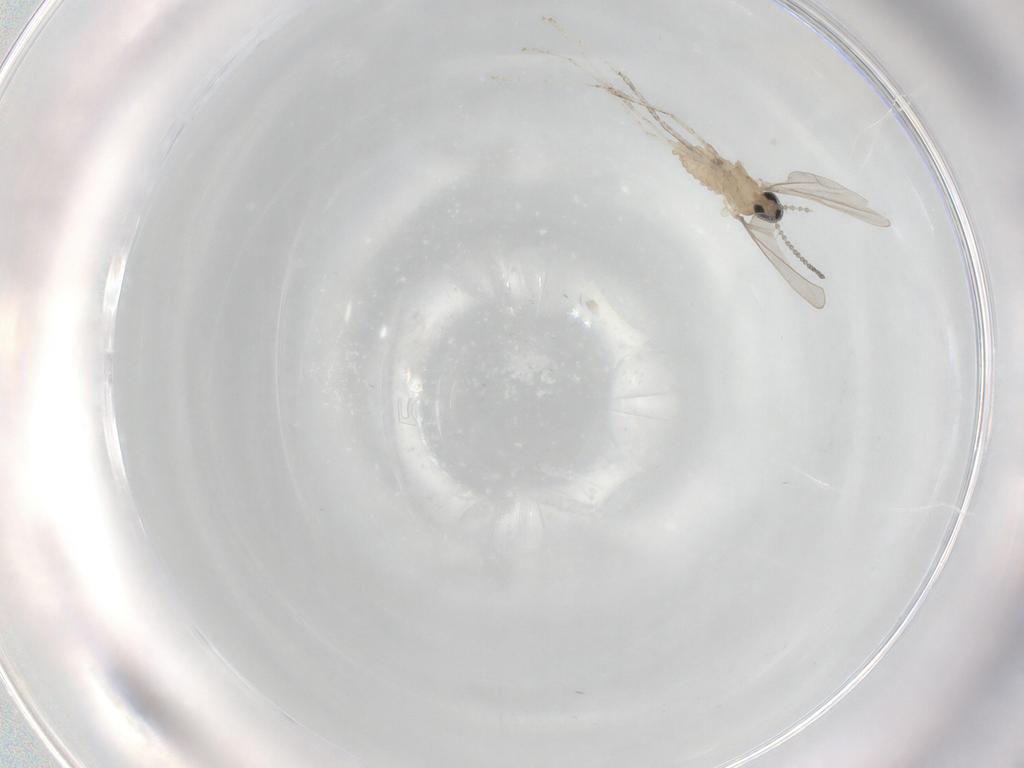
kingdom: Animalia
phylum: Arthropoda
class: Insecta
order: Diptera
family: Cecidomyiidae
